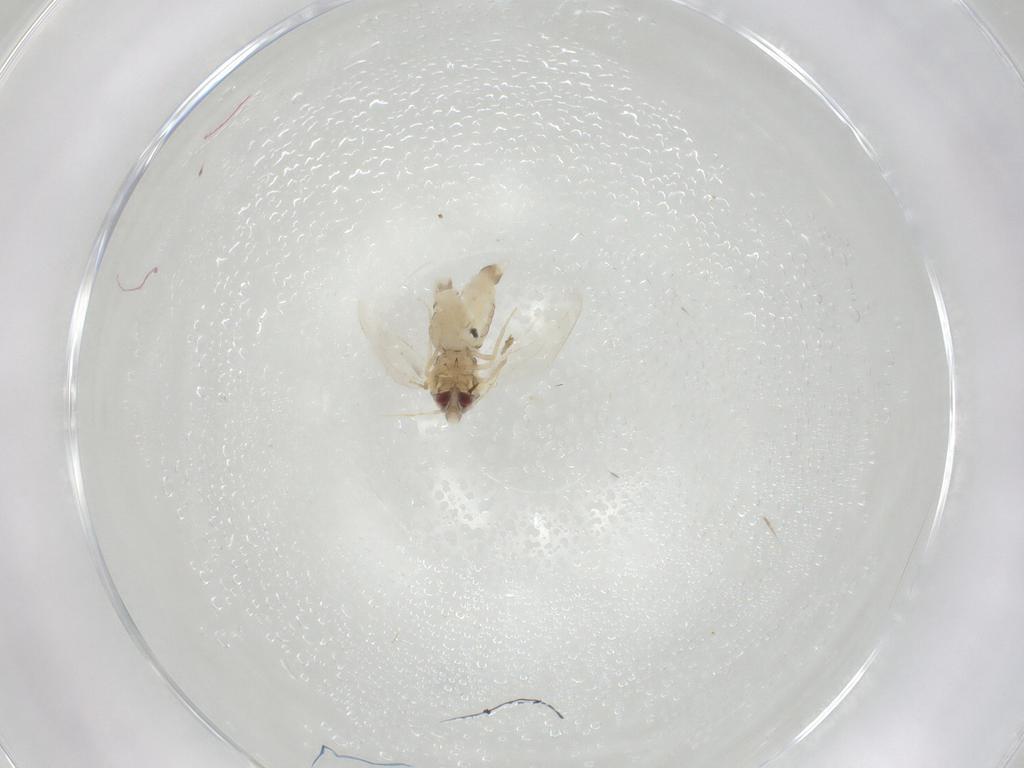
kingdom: Animalia
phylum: Arthropoda
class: Insecta
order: Hemiptera
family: Aleyrodidae
